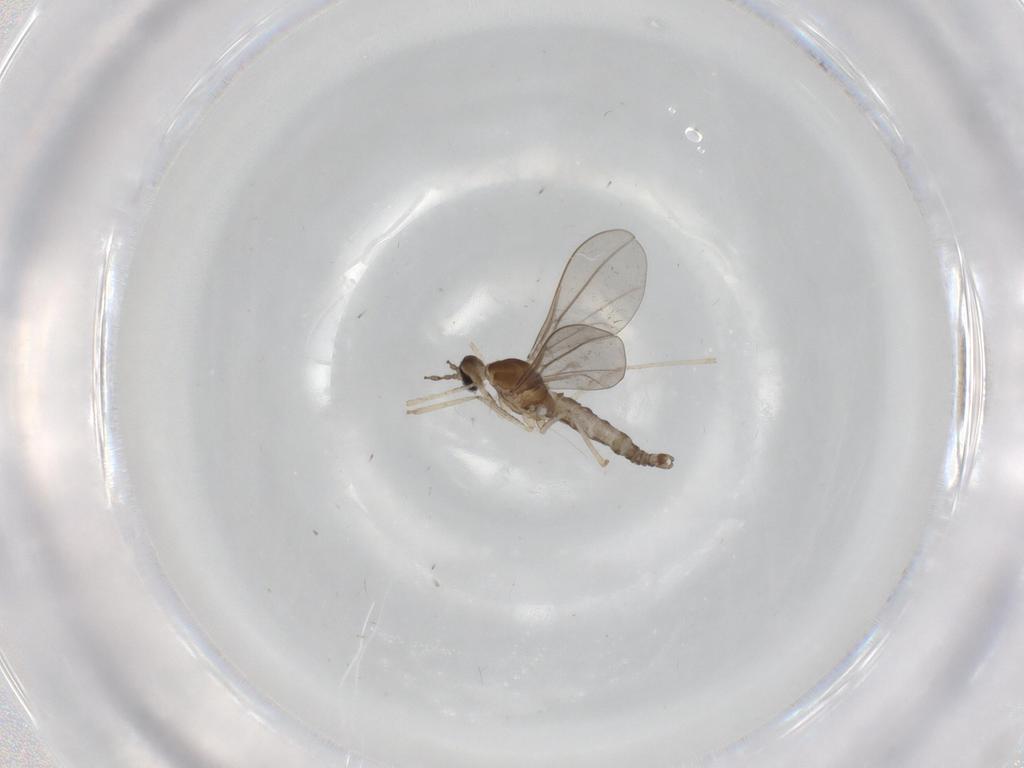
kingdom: Animalia
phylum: Arthropoda
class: Insecta
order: Diptera
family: Cecidomyiidae
